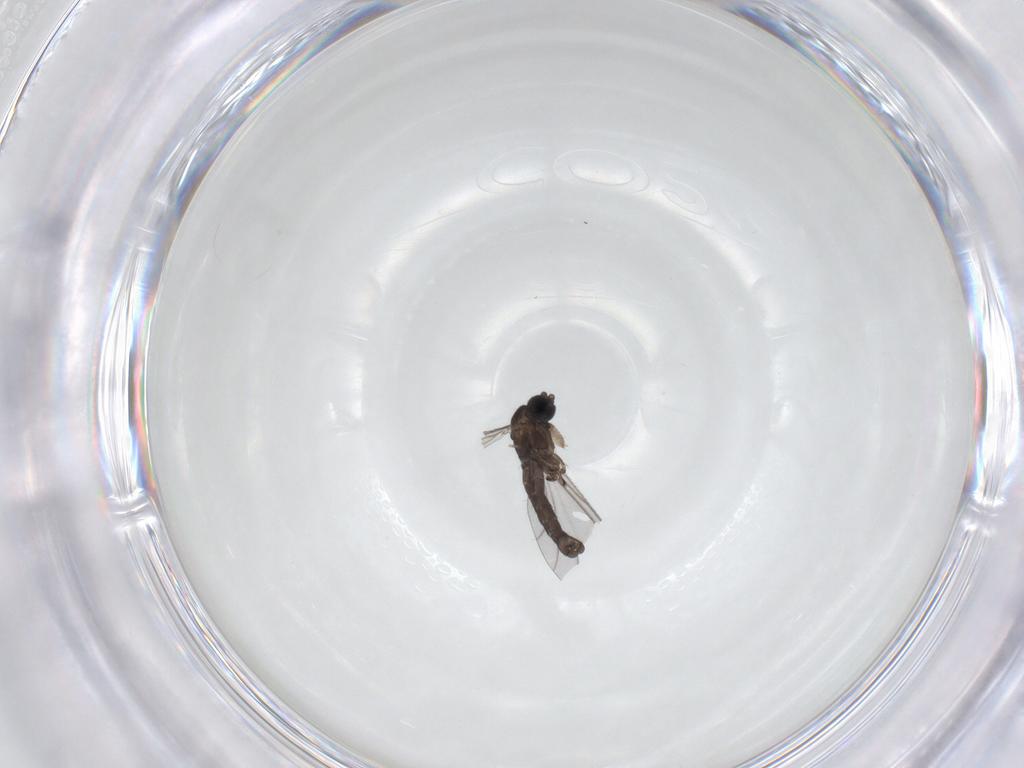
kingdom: Animalia
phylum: Arthropoda
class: Insecta
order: Diptera
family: Sciaridae
